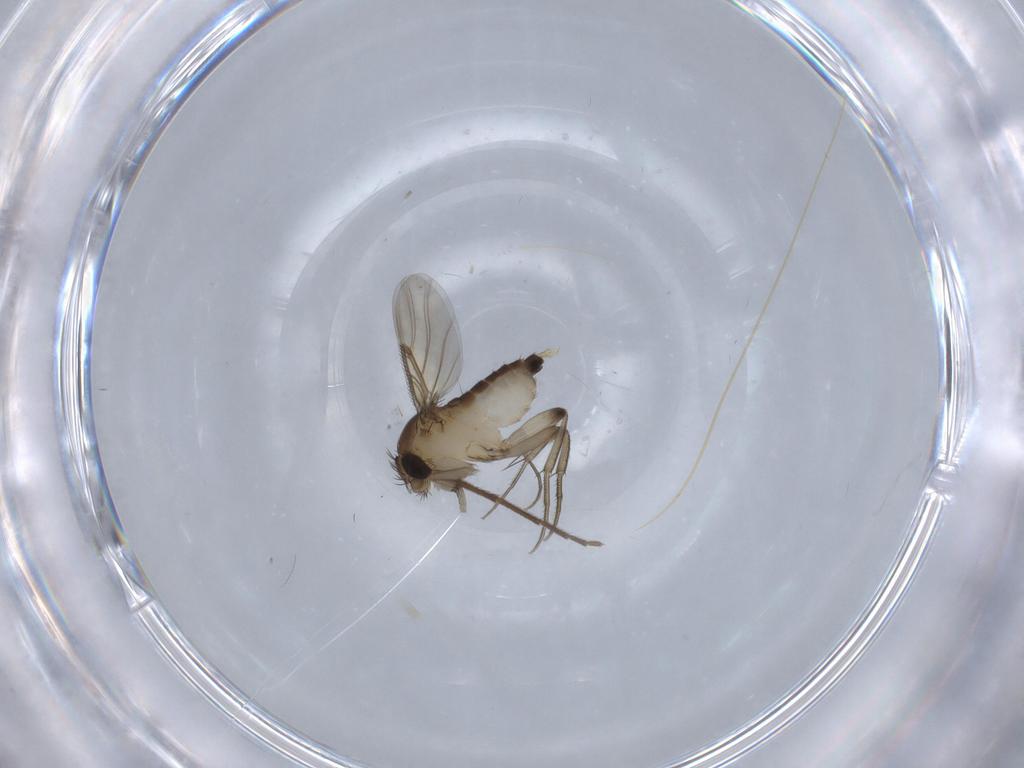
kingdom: Animalia
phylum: Arthropoda
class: Insecta
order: Diptera
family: Chironomidae
